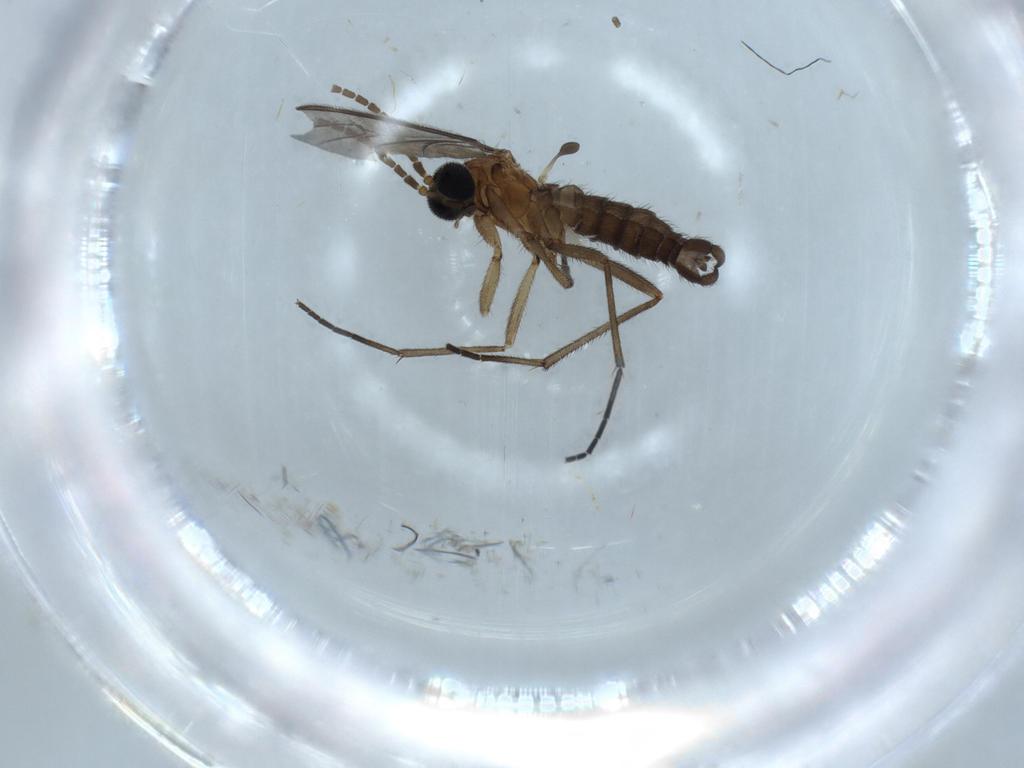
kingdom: Animalia
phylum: Arthropoda
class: Insecta
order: Diptera
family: Sciaridae
